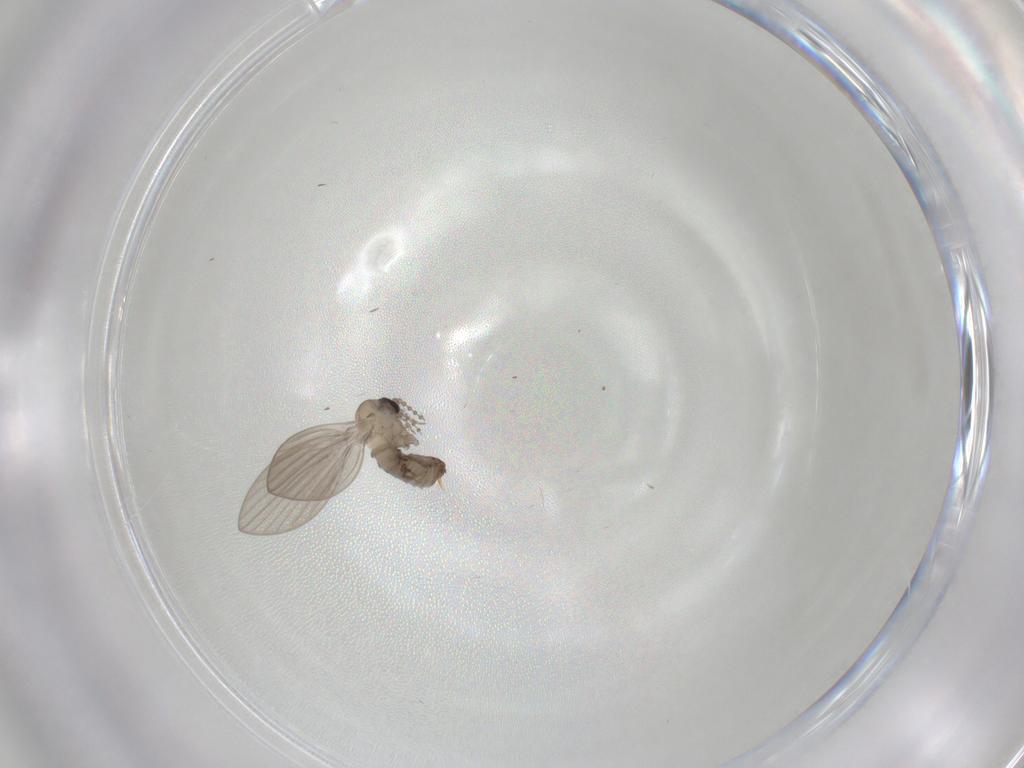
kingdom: Animalia
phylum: Arthropoda
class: Insecta
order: Diptera
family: Psychodidae
